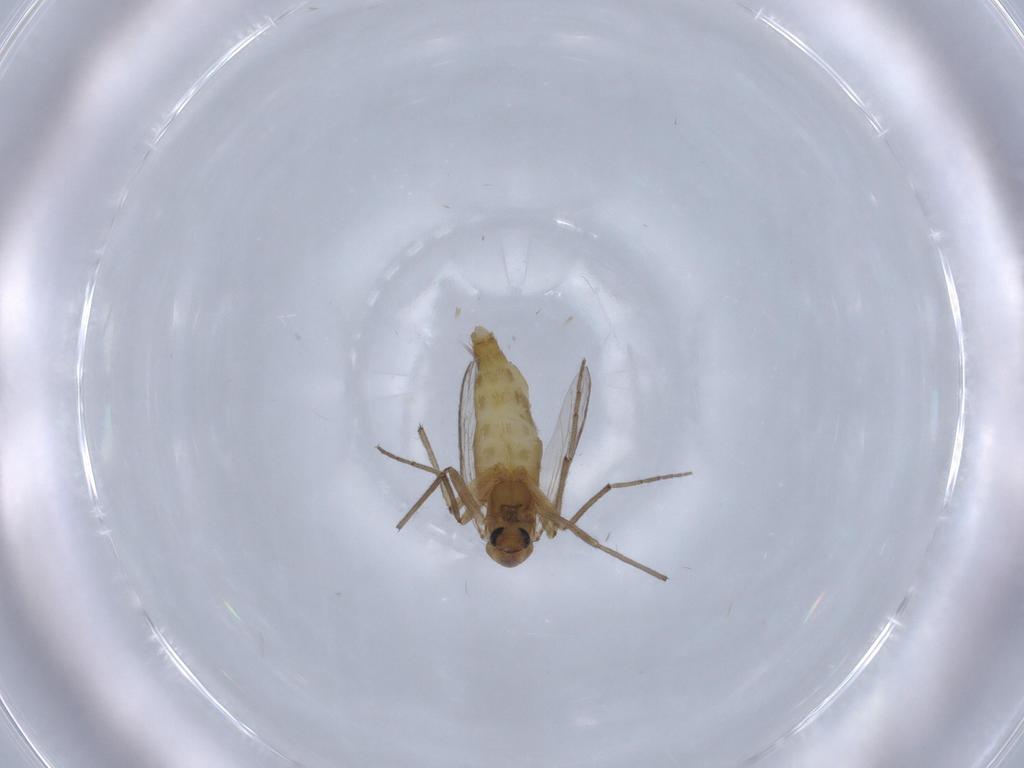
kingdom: Animalia
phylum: Arthropoda
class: Insecta
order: Diptera
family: Chironomidae
